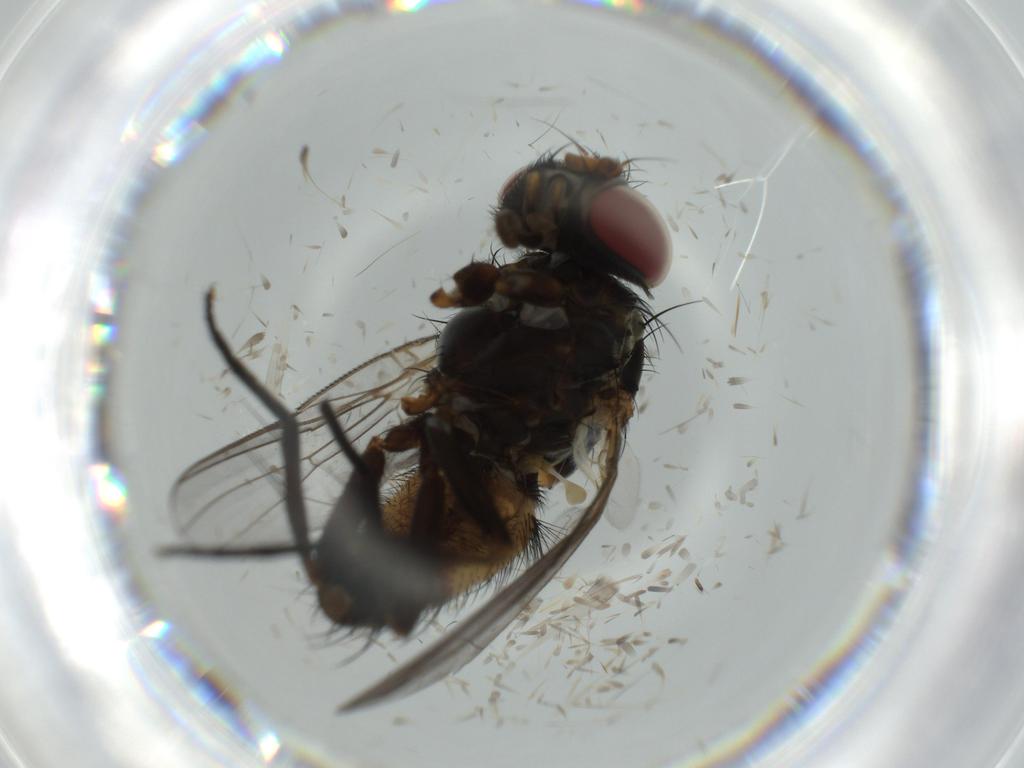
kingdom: Animalia
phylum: Arthropoda
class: Insecta
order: Diptera
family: Ceratopogonidae
